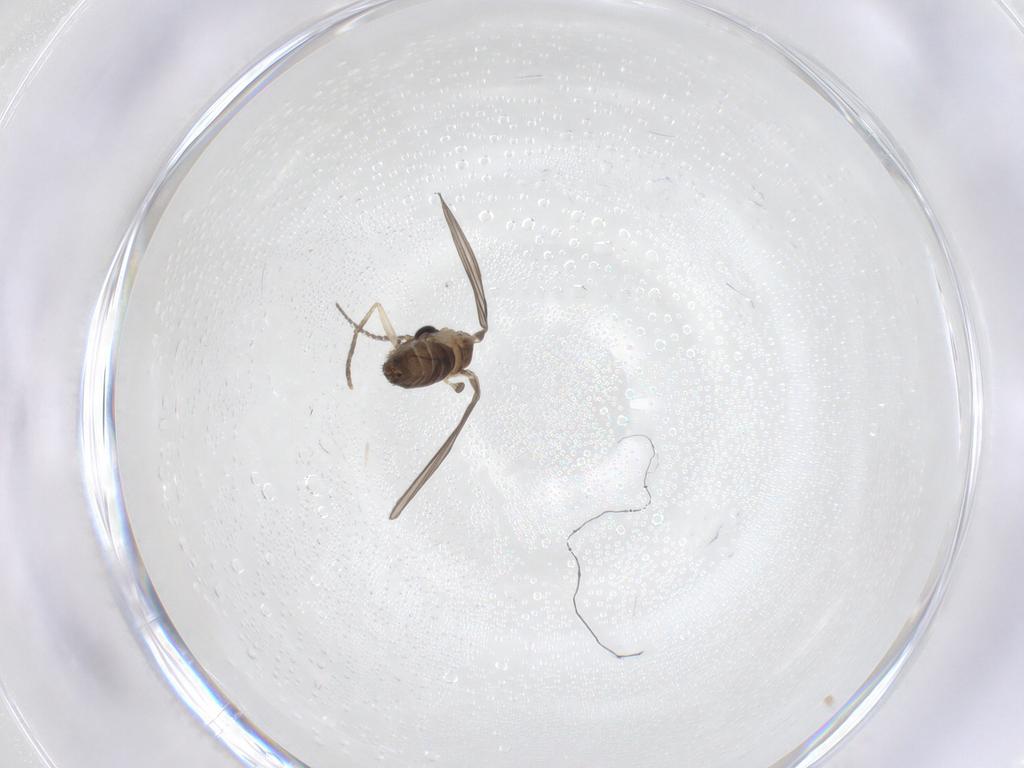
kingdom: Animalia
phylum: Arthropoda
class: Insecta
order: Diptera
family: Psychodidae
